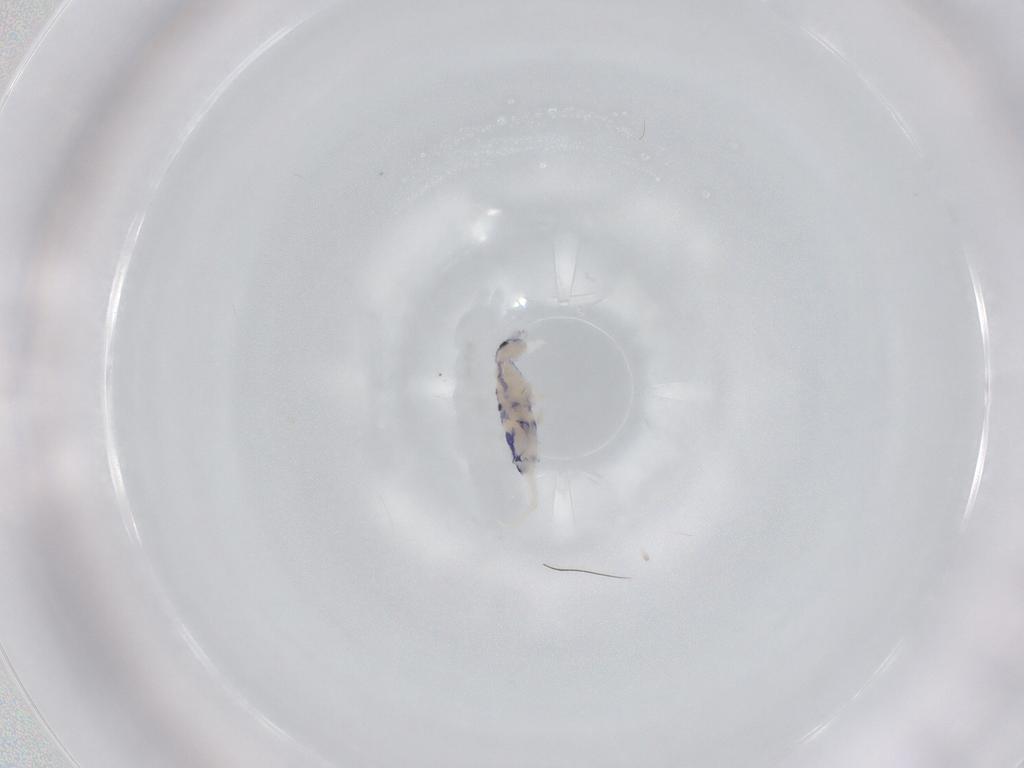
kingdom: Animalia
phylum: Arthropoda
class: Collembola
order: Entomobryomorpha
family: Entomobryidae
